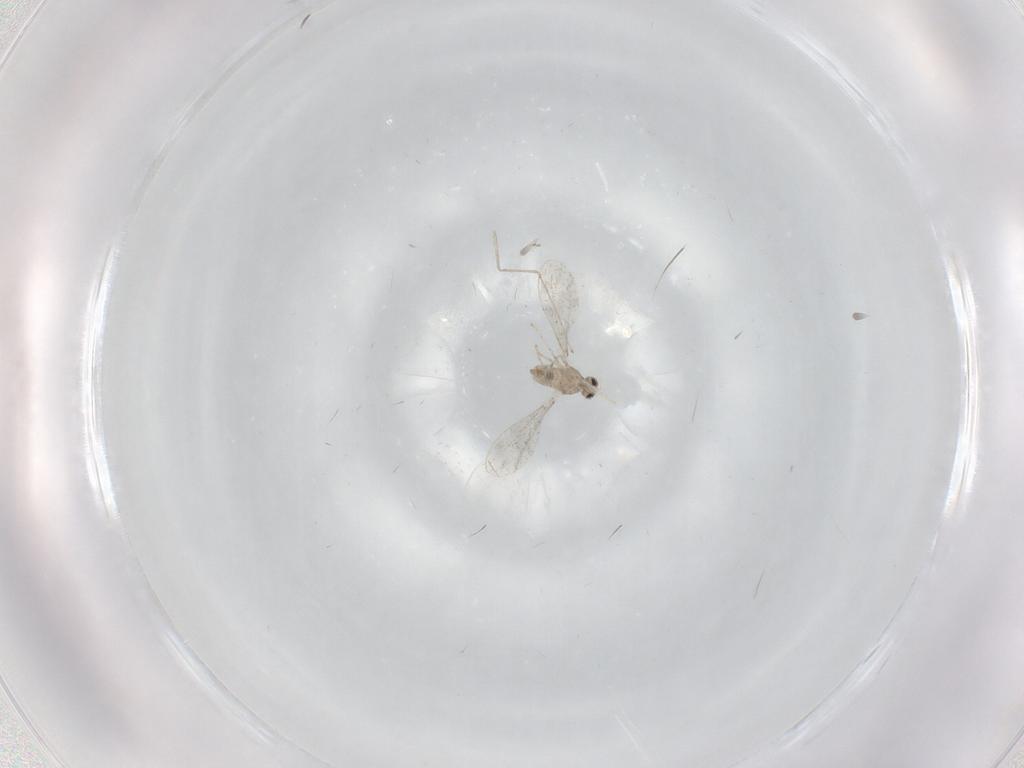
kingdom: Animalia
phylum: Arthropoda
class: Insecta
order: Diptera
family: Cecidomyiidae
